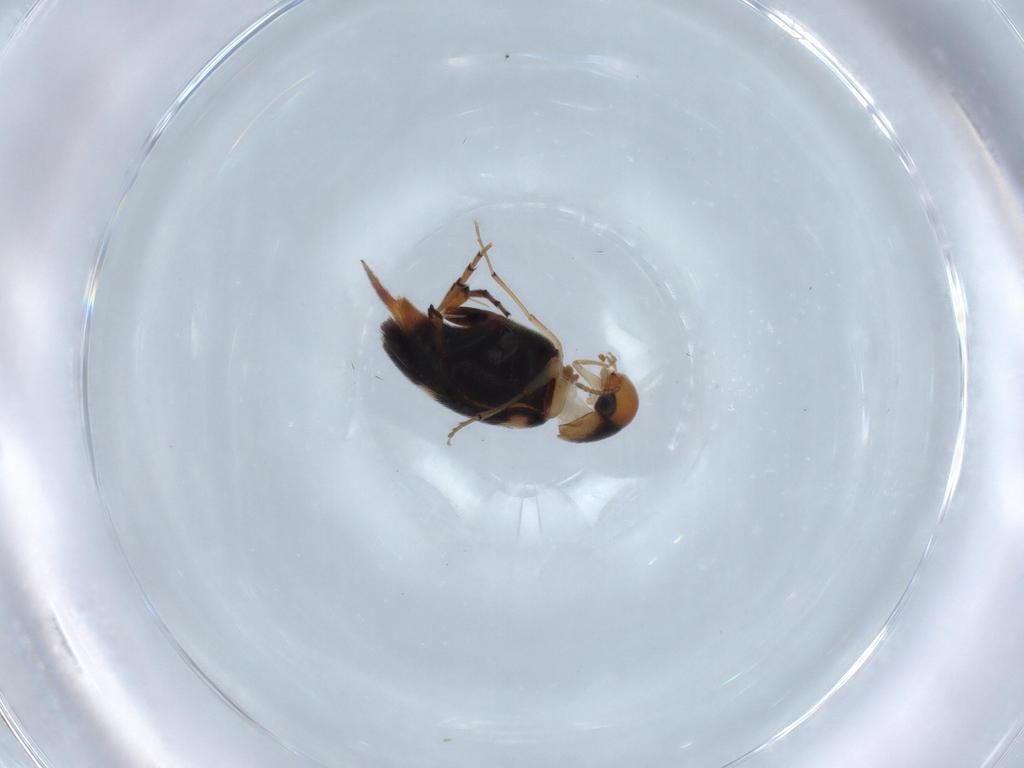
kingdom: Animalia
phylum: Arthropoda
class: Insecta
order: Coleoptera
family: Mordellidae
